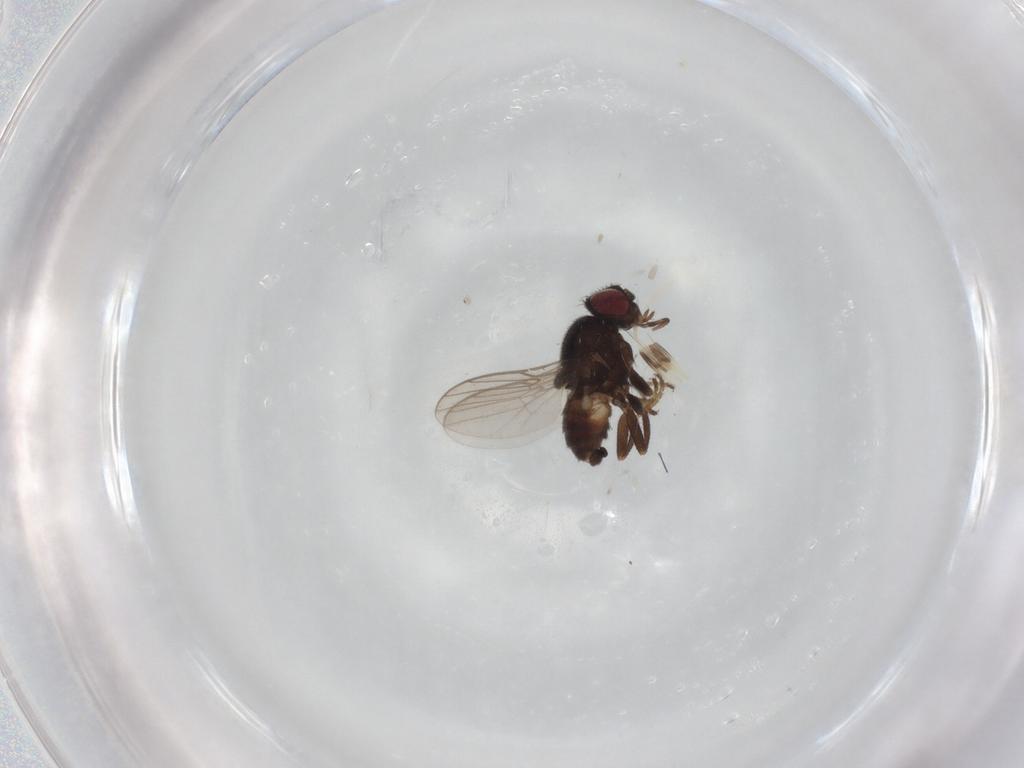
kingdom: Animalia
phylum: Arthropoda
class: Insecta
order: Diptera
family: Chloropidae
